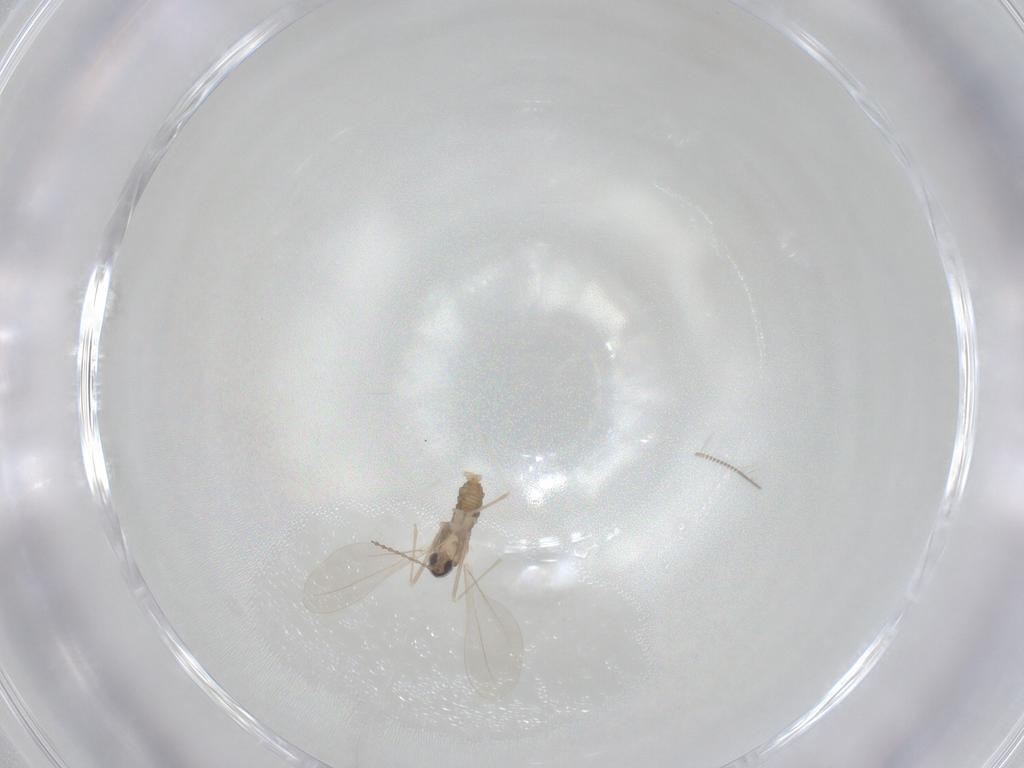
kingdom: Animalia
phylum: Arthropoda
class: Insecta
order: Diptera
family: Cecidomyiidae
